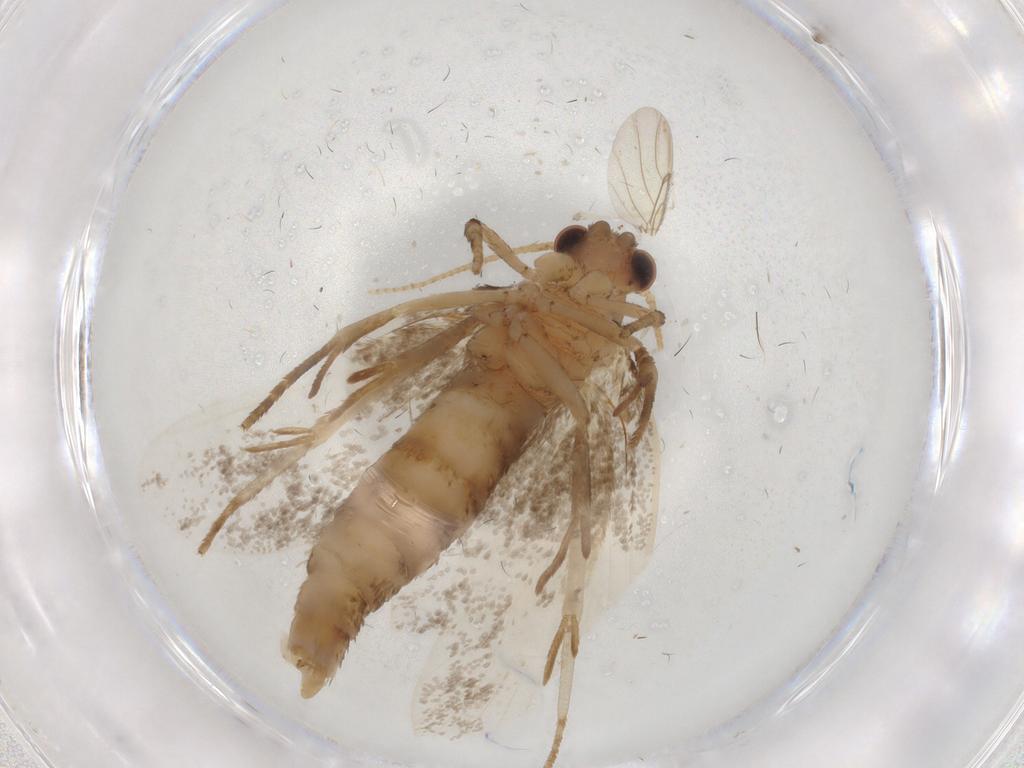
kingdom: Animalia
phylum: Arthropoda
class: Insecta
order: Lepidoptera
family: Tineidae
